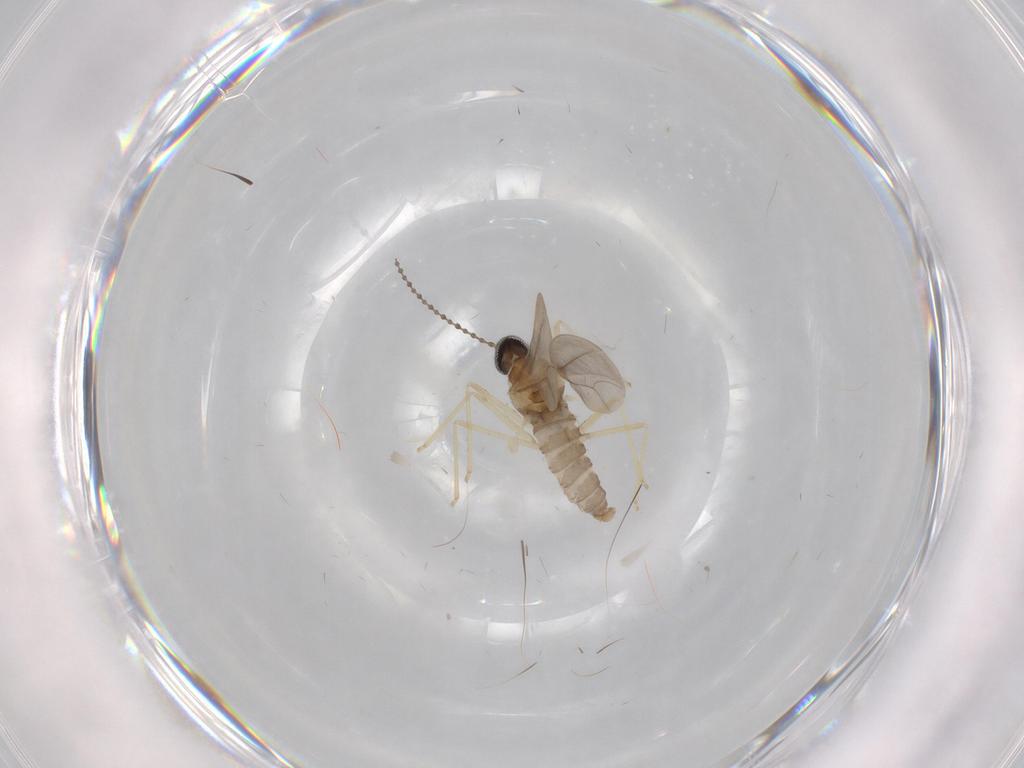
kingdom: Animalia
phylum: Arthropoda
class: Insecta
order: Diptera
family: Cecidomyiidae
